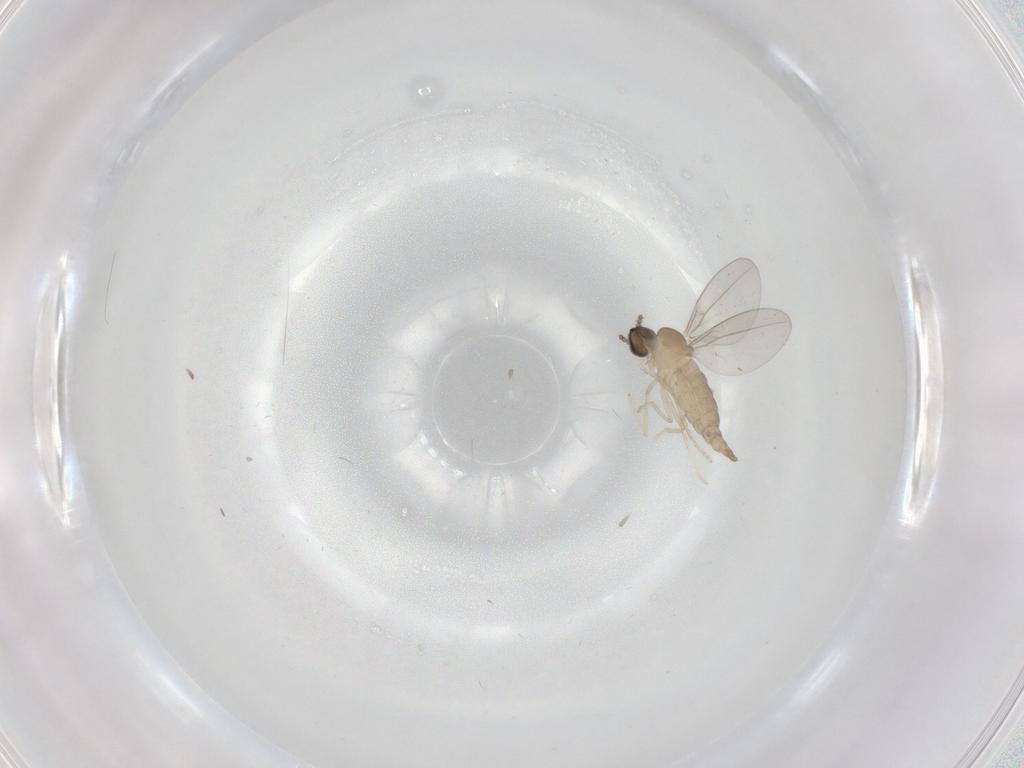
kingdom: Animalia
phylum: Arthropoda
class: Insecta
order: Diptera
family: Cecidomyiidae
